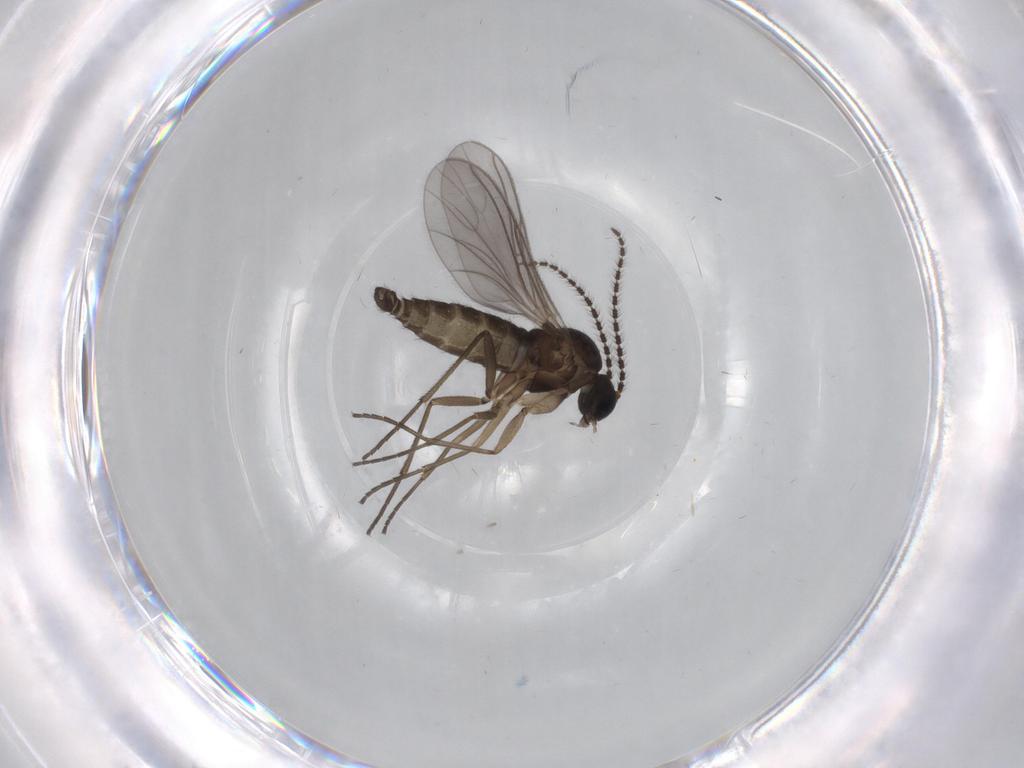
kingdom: Animalia
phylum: Arthropoda
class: Insecta
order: Diptera
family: Sciaridae
